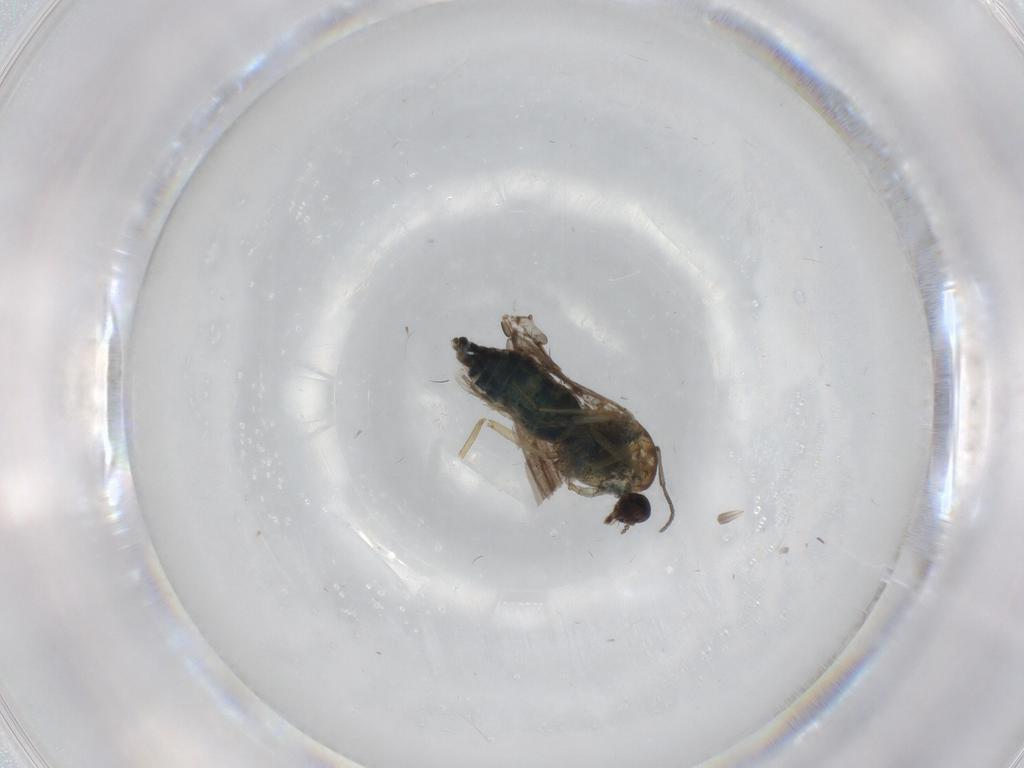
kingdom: Animalia
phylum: Arthropoda
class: Insecta
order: Diptera
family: Sciaridae
